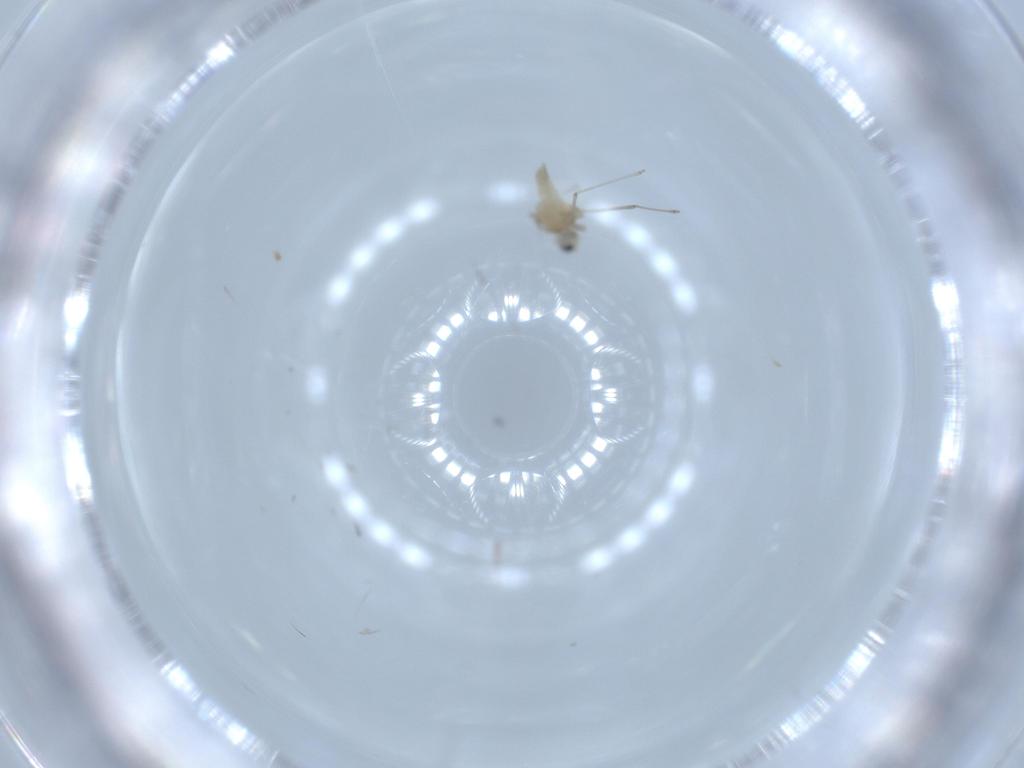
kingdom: Animalia
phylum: Arthropoda
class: Insecta
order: Diptera
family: Cecidomyiidae
